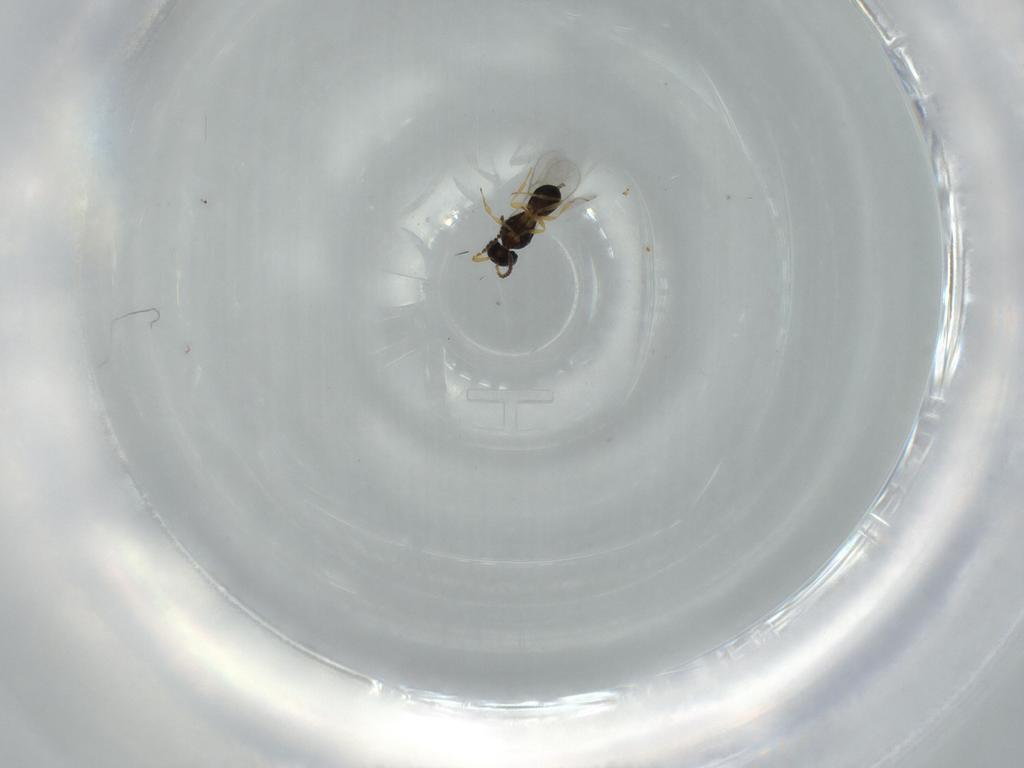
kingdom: Animalia
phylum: Arthropoda
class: Insecta
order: Hymenoptera
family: Scelionidae
